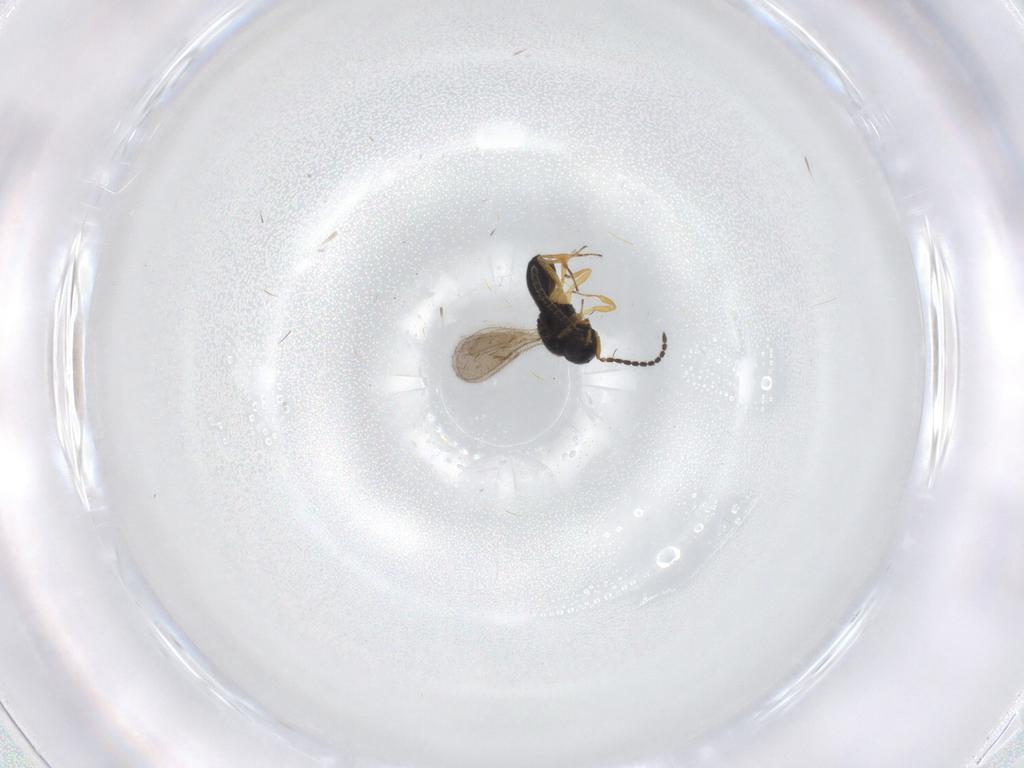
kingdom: Animalia
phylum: Arthropoda
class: Insecta
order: Hymenoptera
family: Scelionidae
